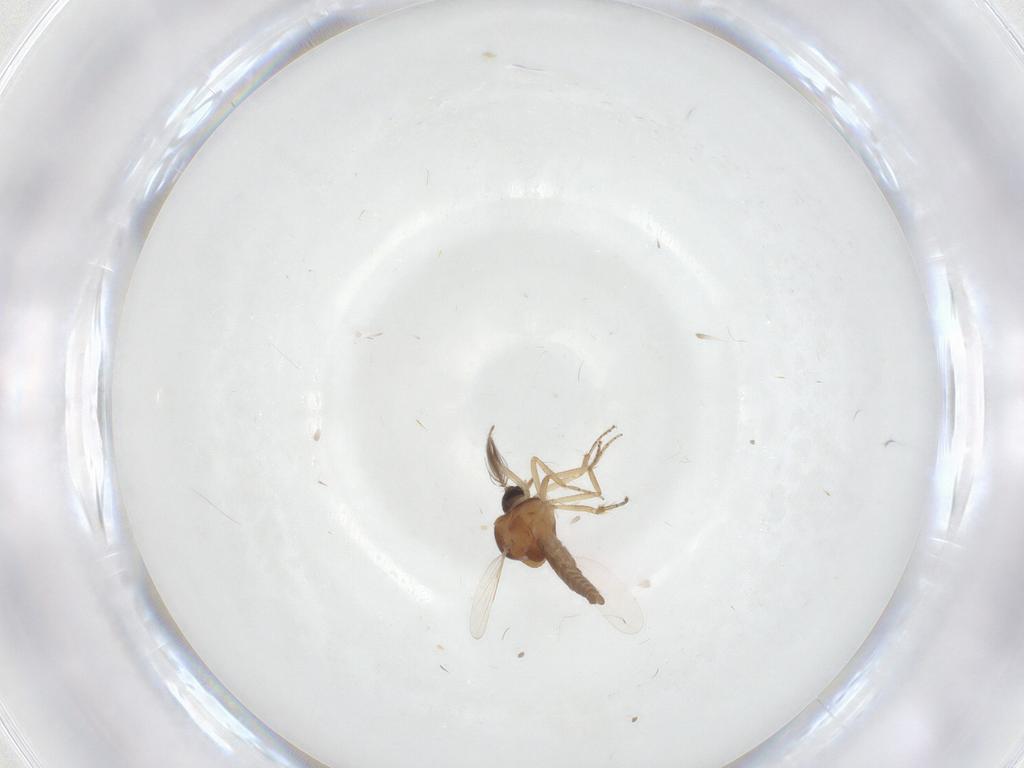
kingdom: Animalia
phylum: Arthropoda
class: Insecta
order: Diptera
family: Ceratopogonidae
